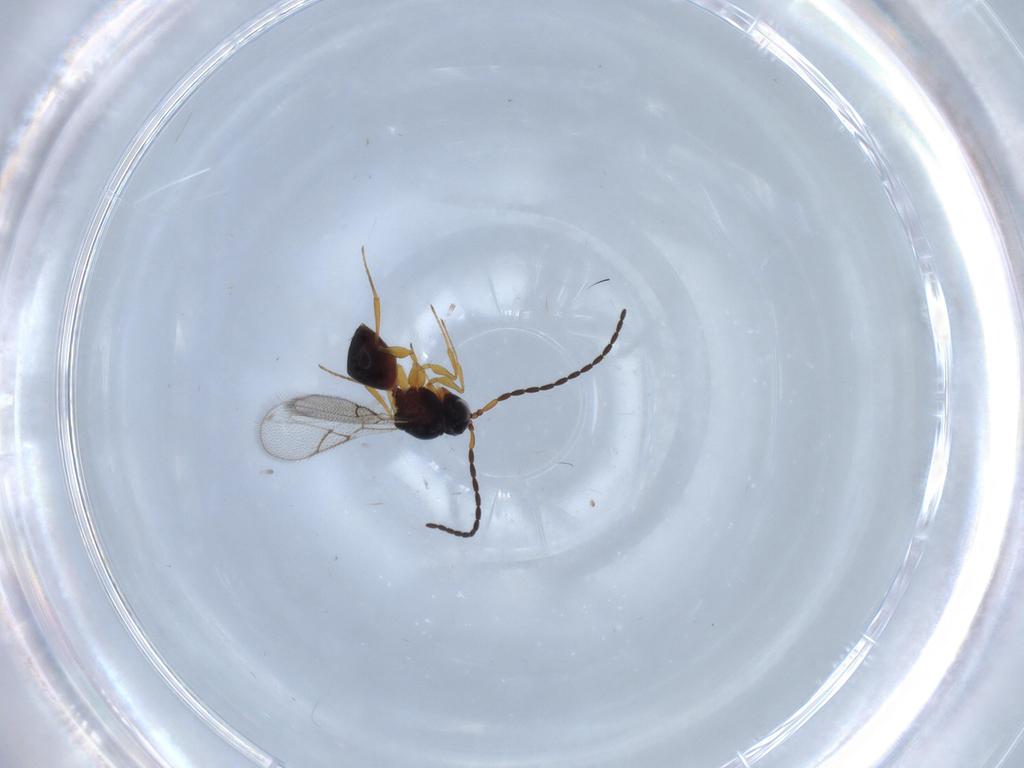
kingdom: Animalia
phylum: Arthropoda
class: Insecta
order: Hymenoptera
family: Figitidae
